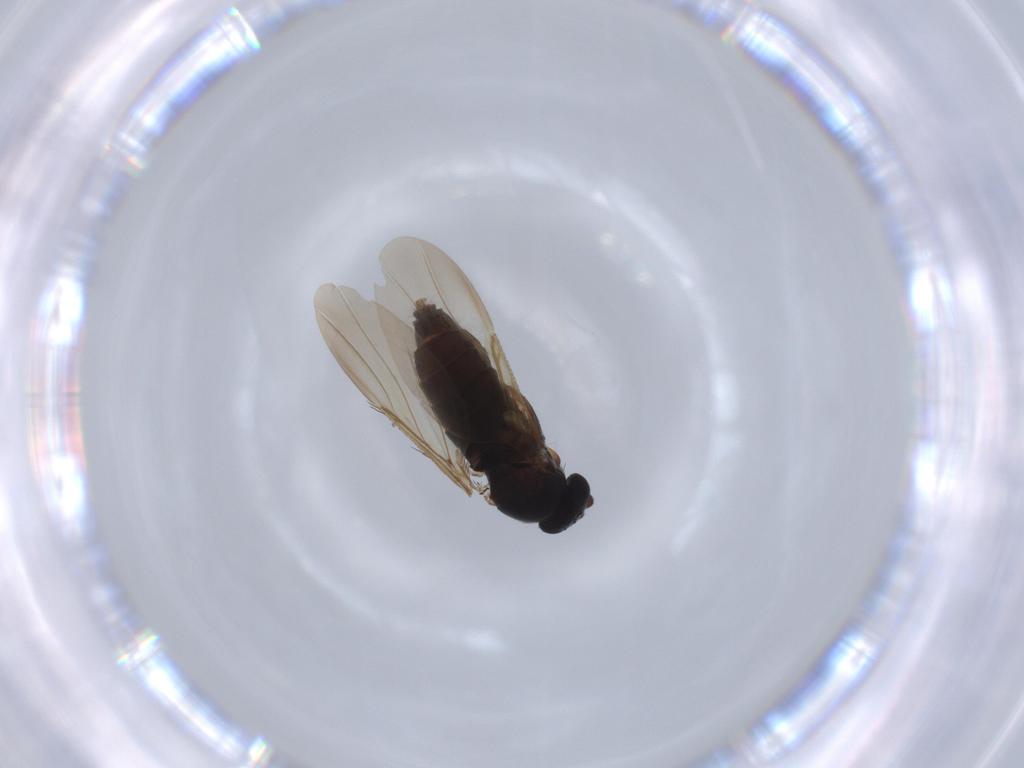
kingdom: Animalia
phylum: Arthropoda
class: Insecta
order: Diptera
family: Phoridae
